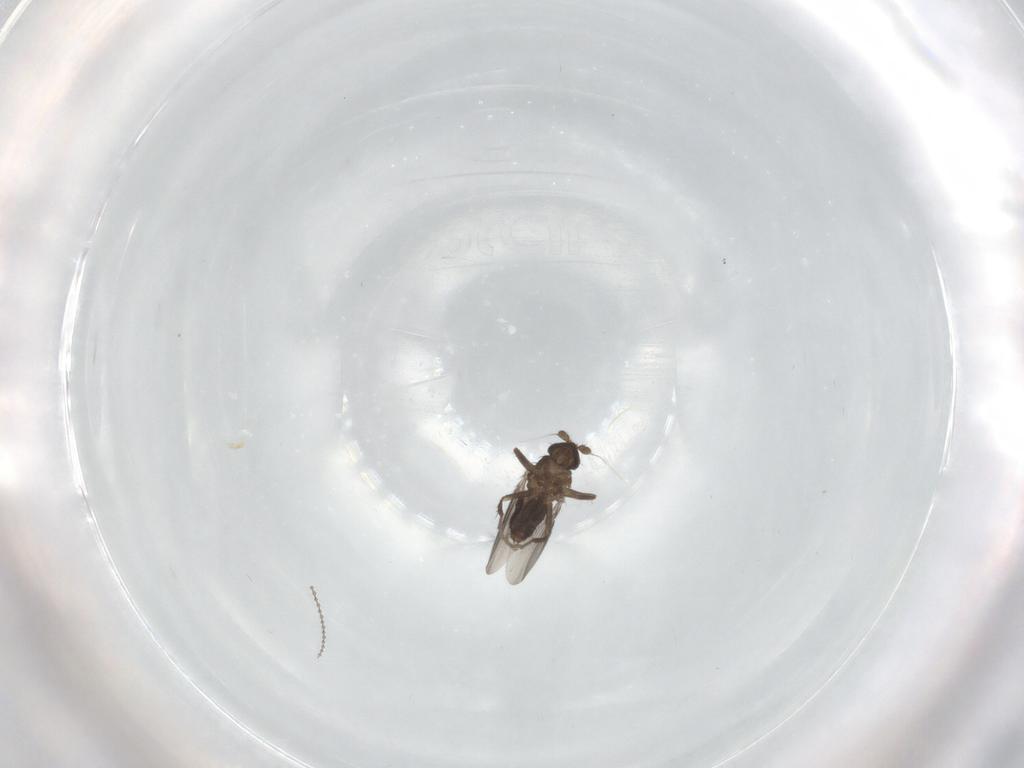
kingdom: Animalia
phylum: Arthropoda
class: Insecta
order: Diptera
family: Sphaeroceridae
